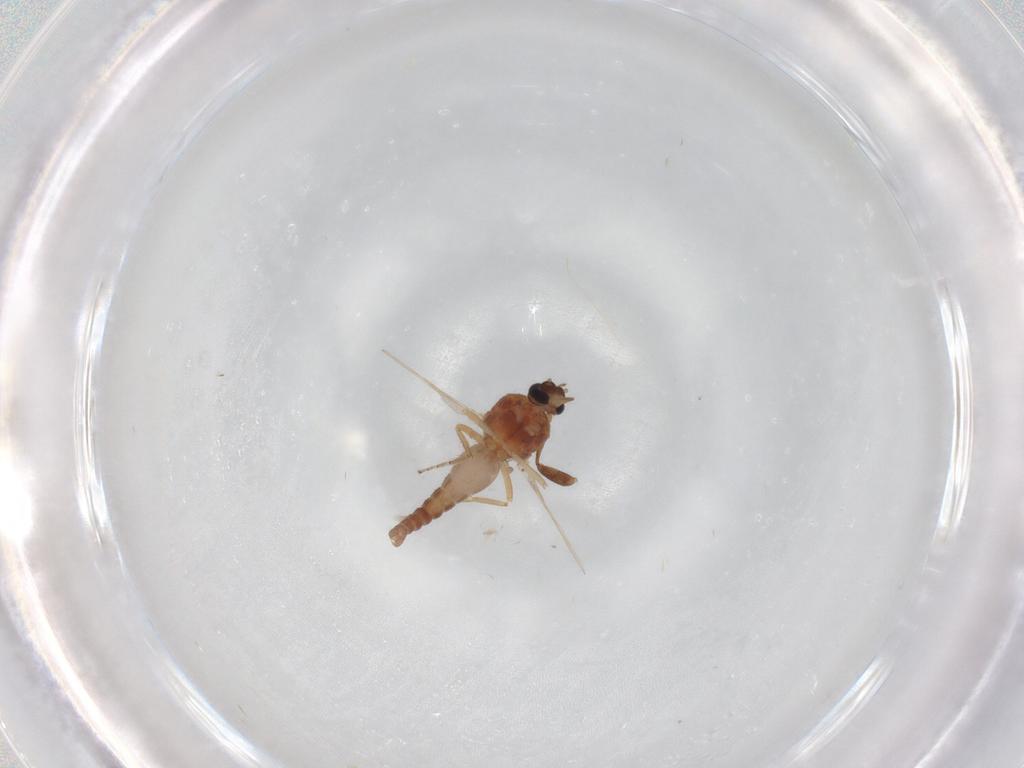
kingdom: Animalia
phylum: Arthropoda
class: Insecta
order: Diptera
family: Sphaeroceridae
